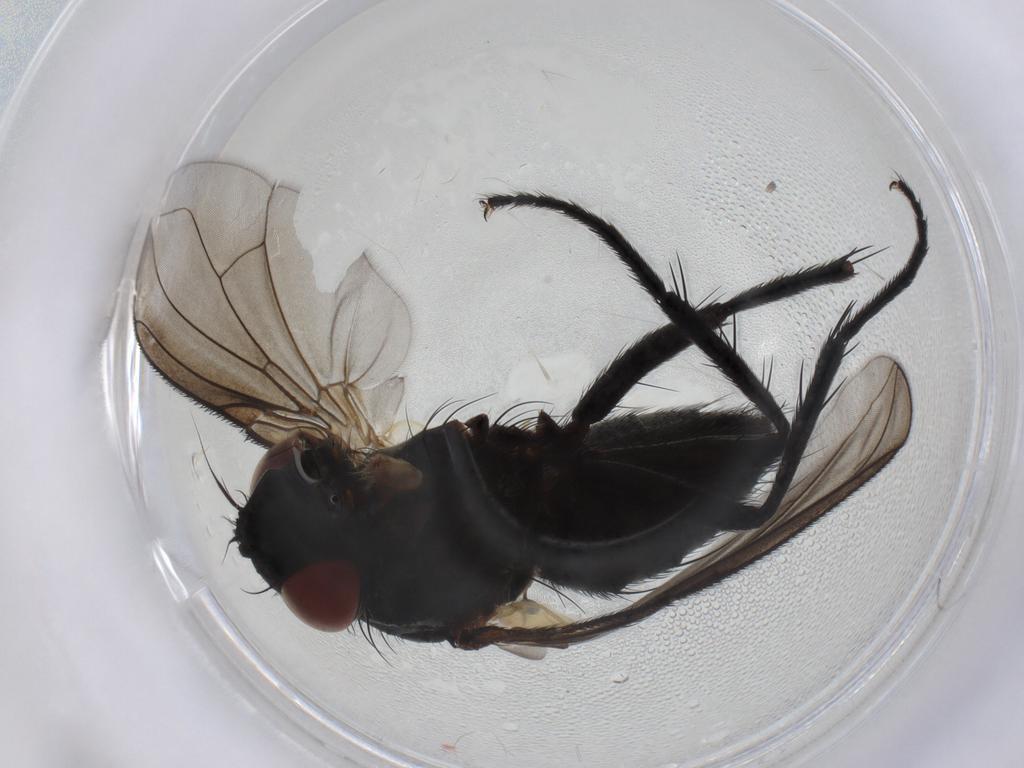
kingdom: Animalia
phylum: Arthropoda
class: Insecta
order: Diptera
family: Tachinidae
